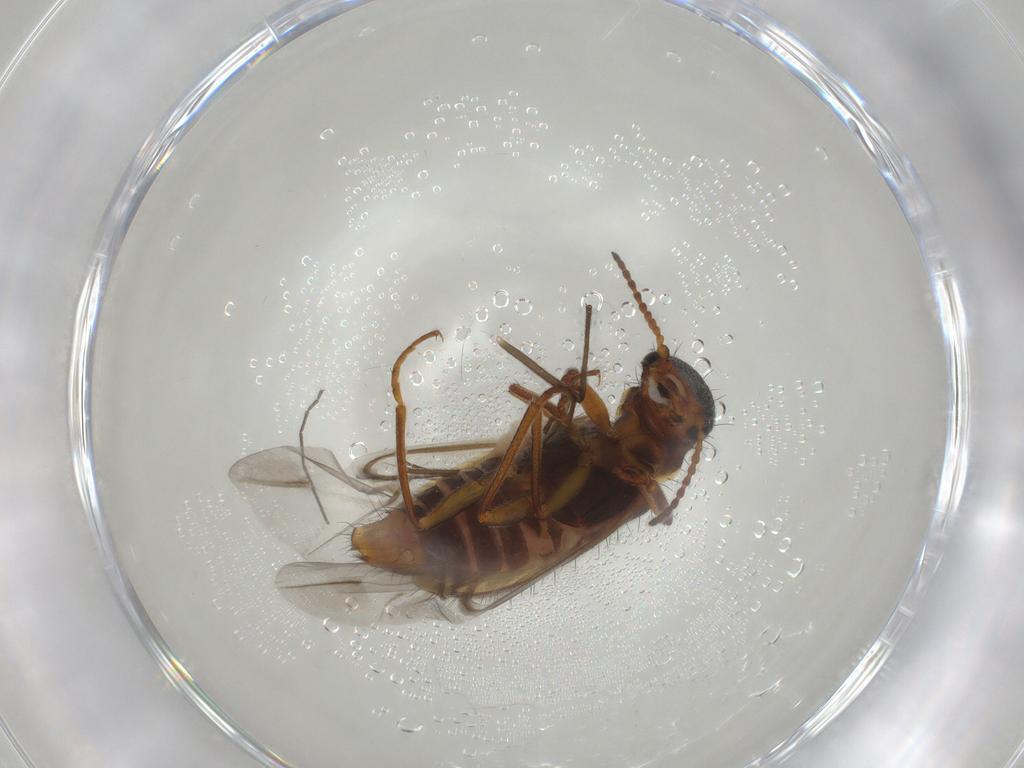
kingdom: Animalia
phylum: Arthropoda
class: Insecta
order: Coleoptera
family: Melyridae
